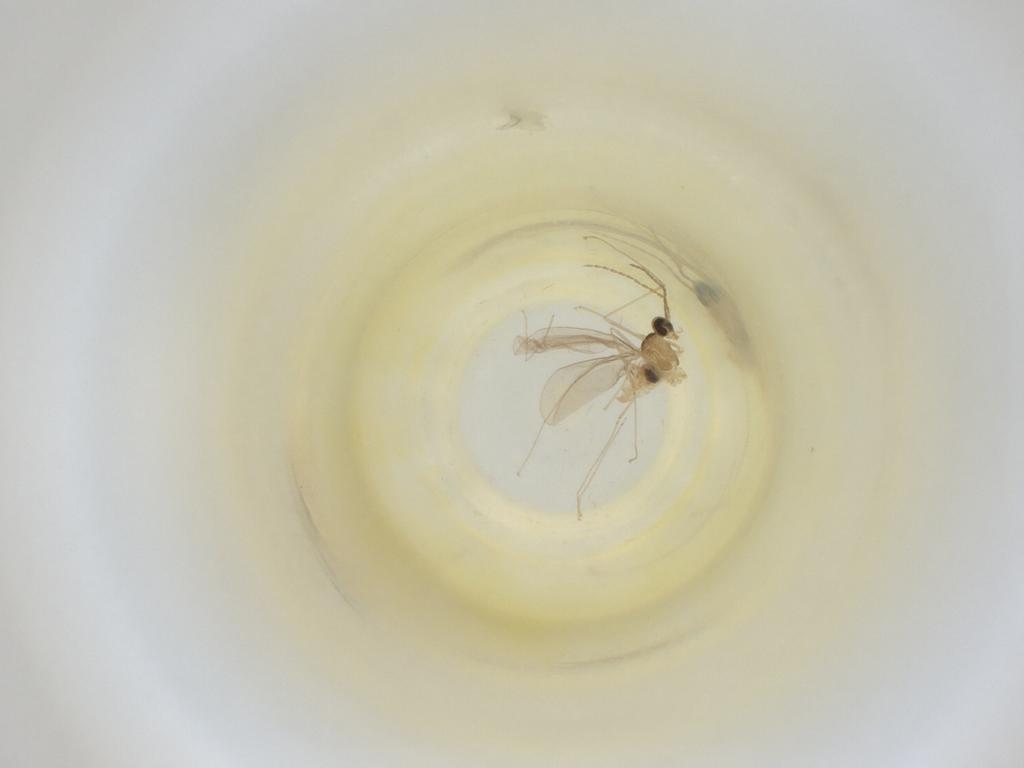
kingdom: Animalia
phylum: Arthropoda
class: Insecta
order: Diptera
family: Cecidomyiidae
